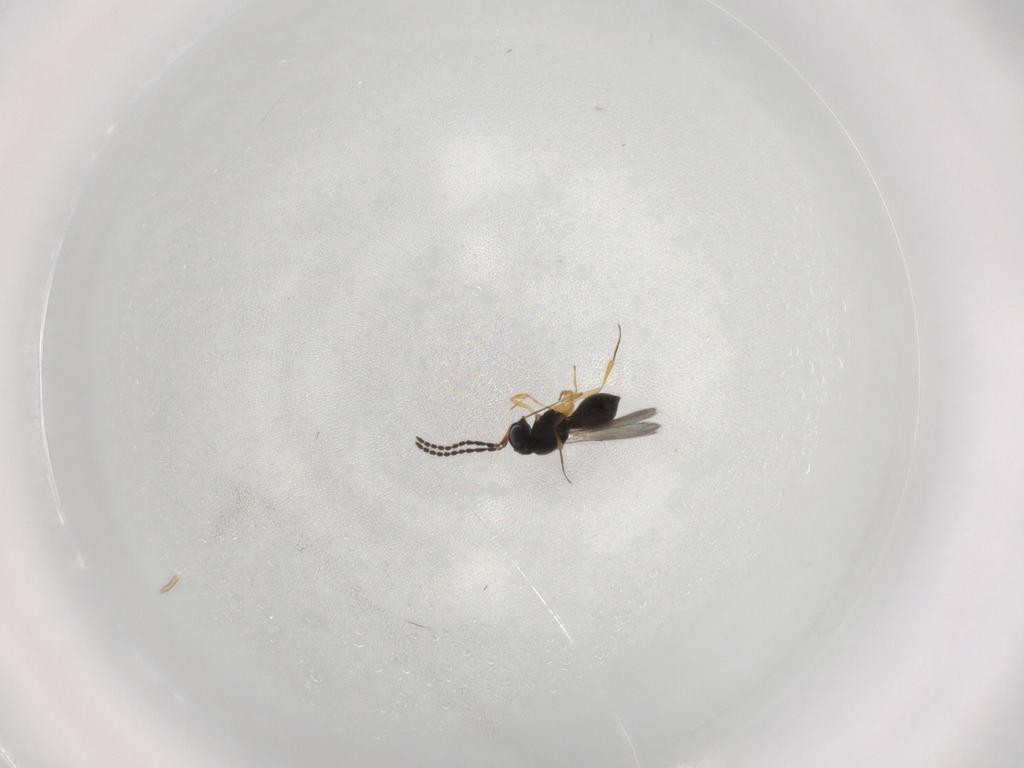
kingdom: Animalia
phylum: Arthropoda
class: Insecta
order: Hymenoptera
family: Scelionidae
